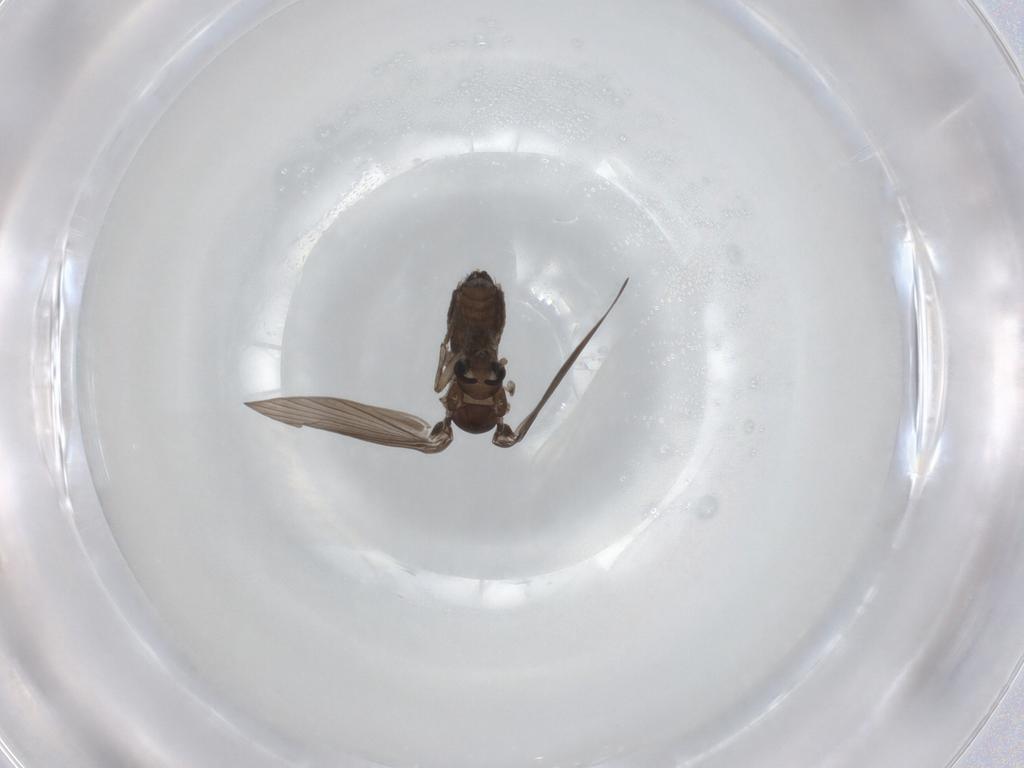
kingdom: Animalia
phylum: Arthropoda
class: Insecta
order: Diptera
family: Psychodidae
